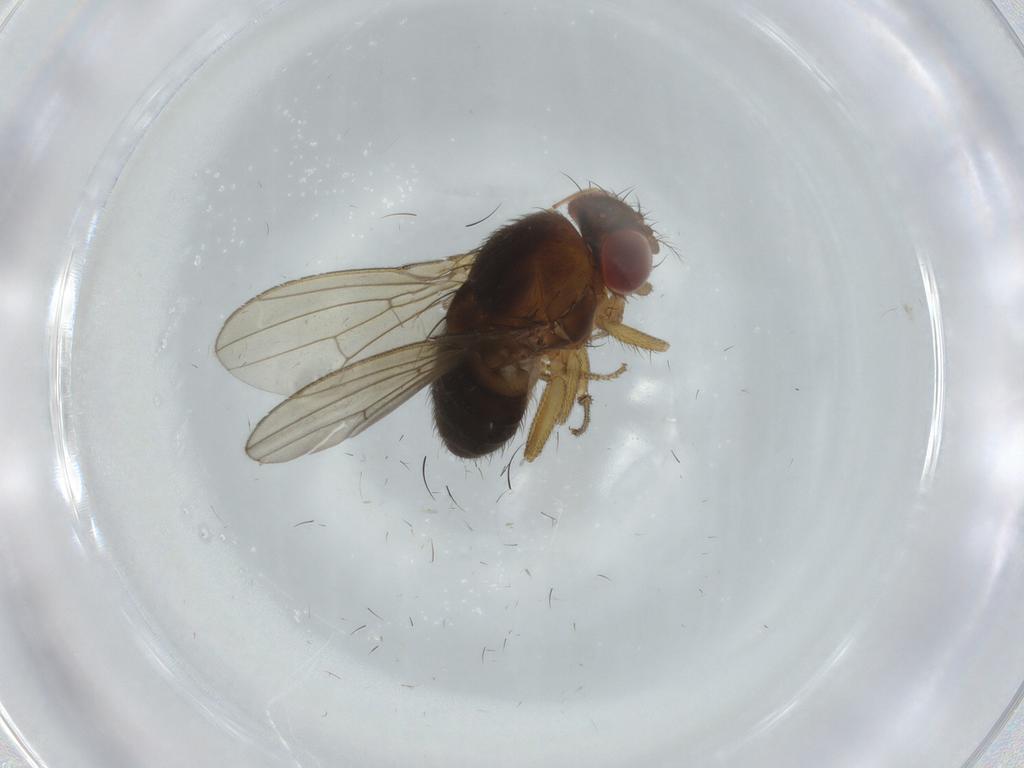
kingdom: Animalia
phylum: Arthropoda
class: Insecta
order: Diptera
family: Drosophilidae
